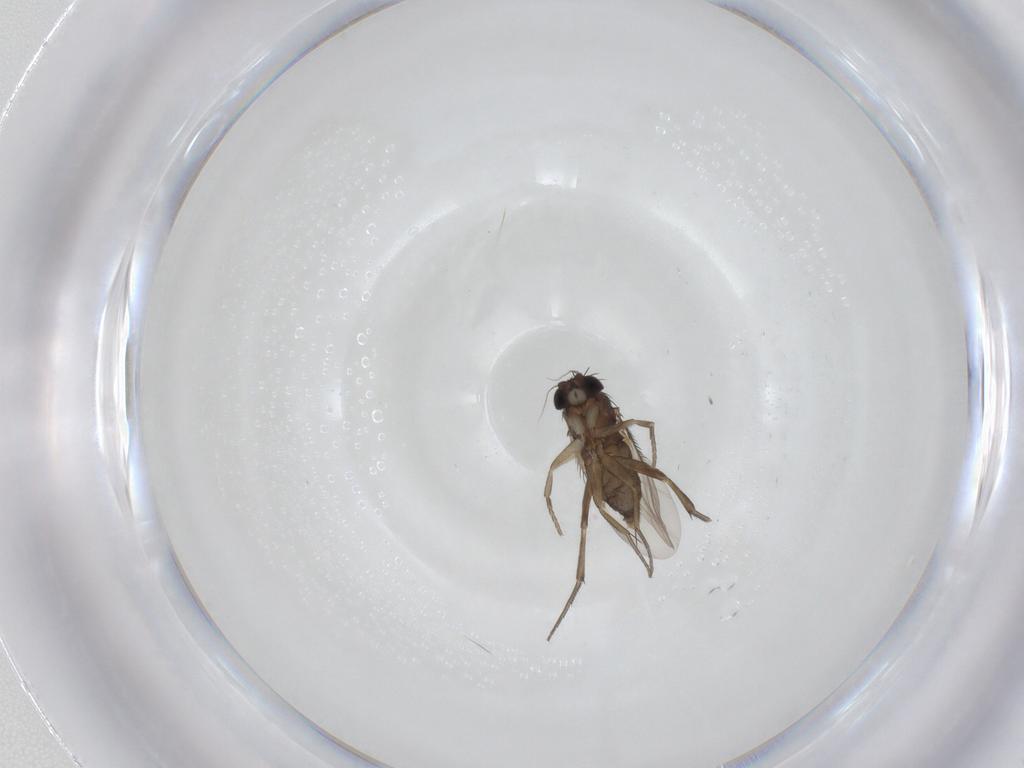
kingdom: Animalia
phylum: Arthropoda
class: Insecta
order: Diptera
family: Phoridae
